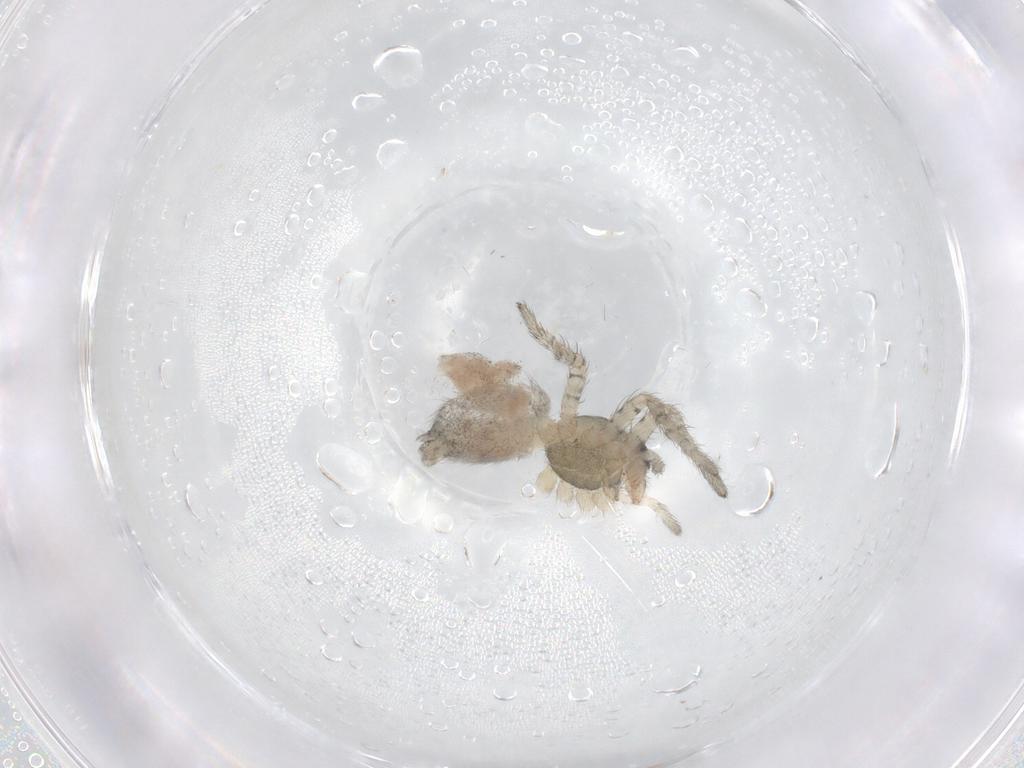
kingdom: Animalia
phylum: Arthropoda
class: Arachnida
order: Araneae
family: Anyphaenidae
